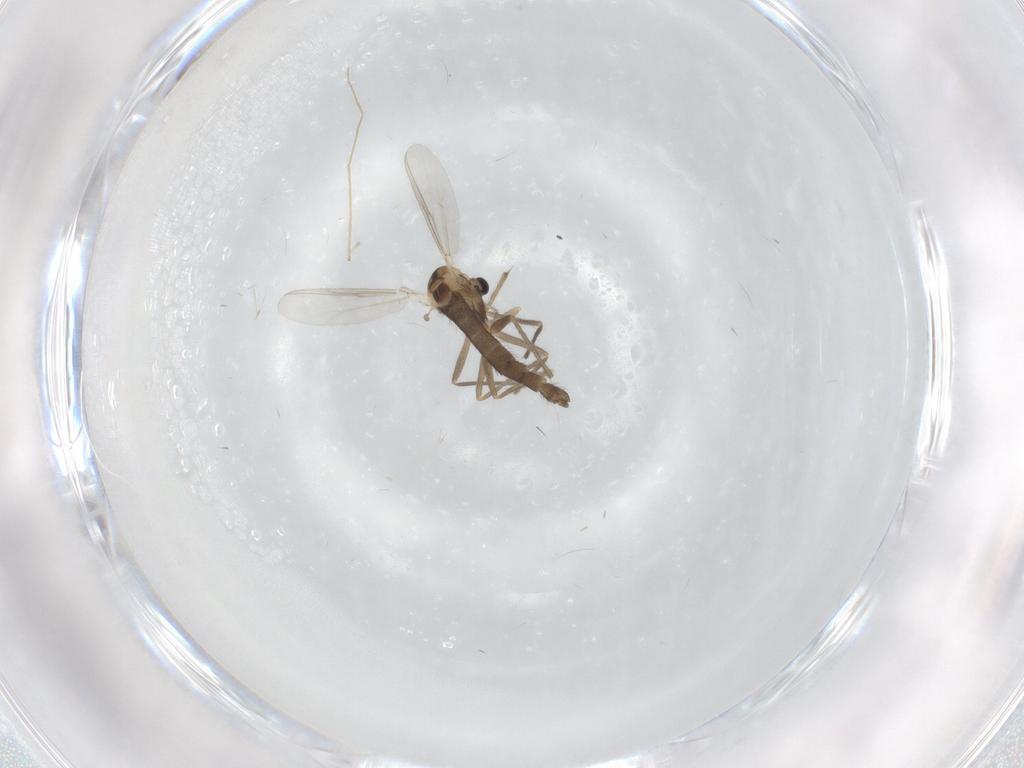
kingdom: Animalia
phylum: Arthropoda
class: Insecta
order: Diptera
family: Chironomidae
